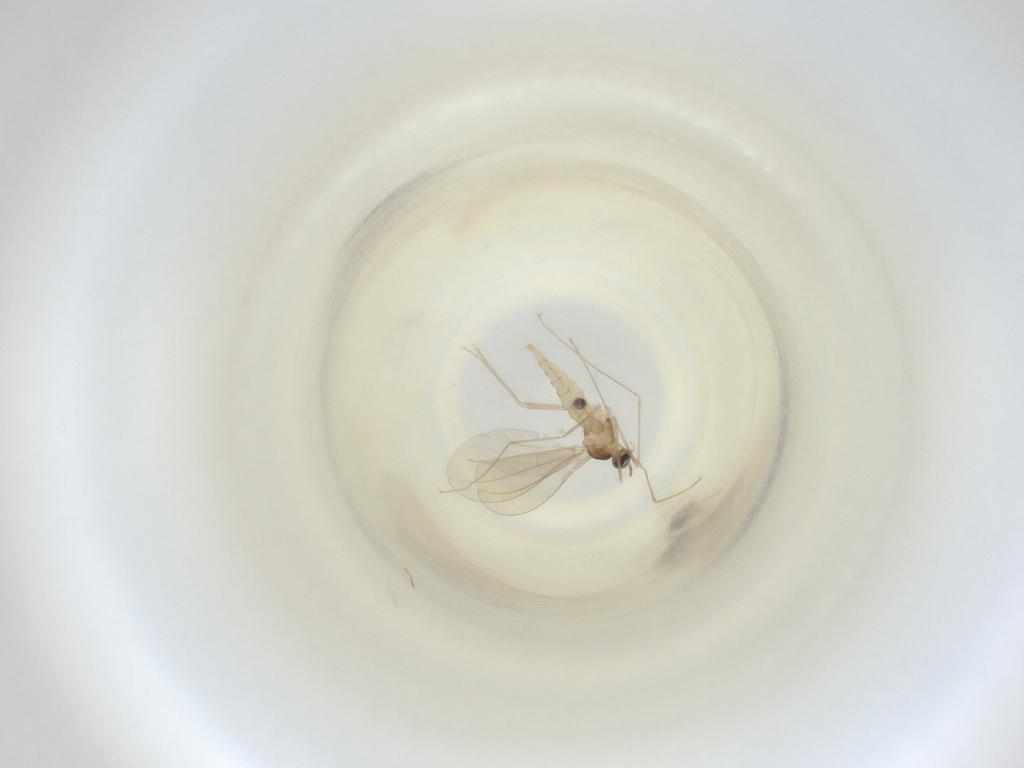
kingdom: Animalia
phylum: Arthropoda
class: Insecta
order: Diptera
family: Cecidomyiidae
